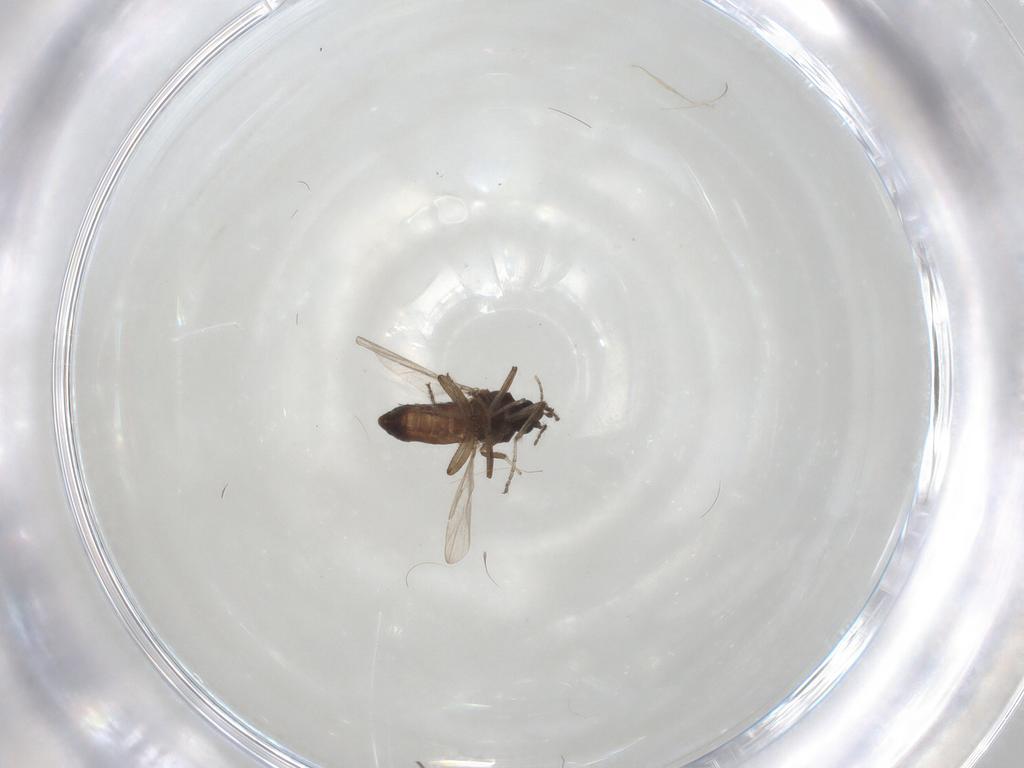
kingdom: Animalia
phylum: Arthropoda
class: Insecta
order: Diptera
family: Ceratopogonidae
